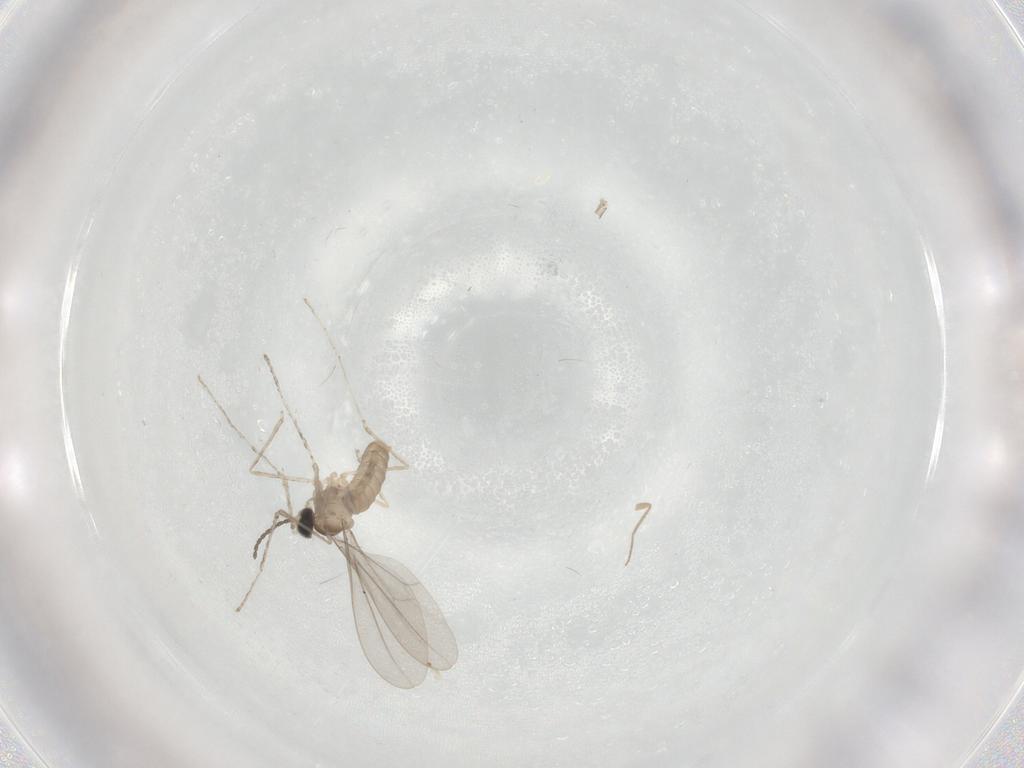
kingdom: Animalia
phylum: Arthropoda
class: Insecta
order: Diptera
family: Chironomidae
